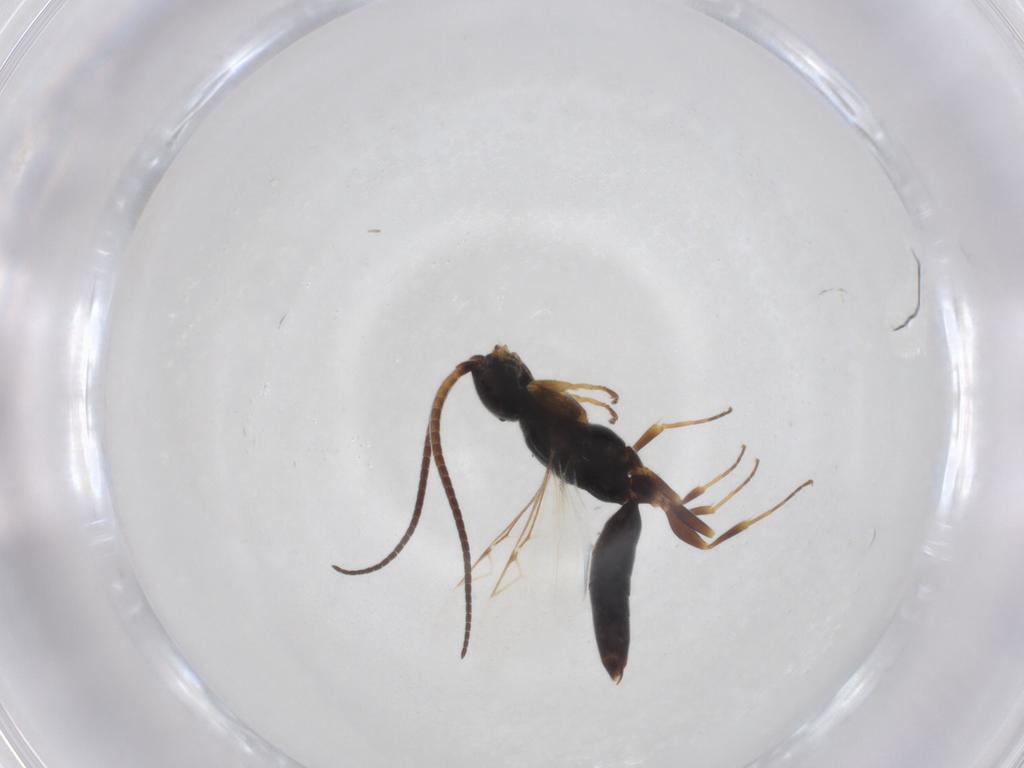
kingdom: Animalia
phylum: Arthropoda
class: Insecta
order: Hymenoptera
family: Sclerogibbidae
